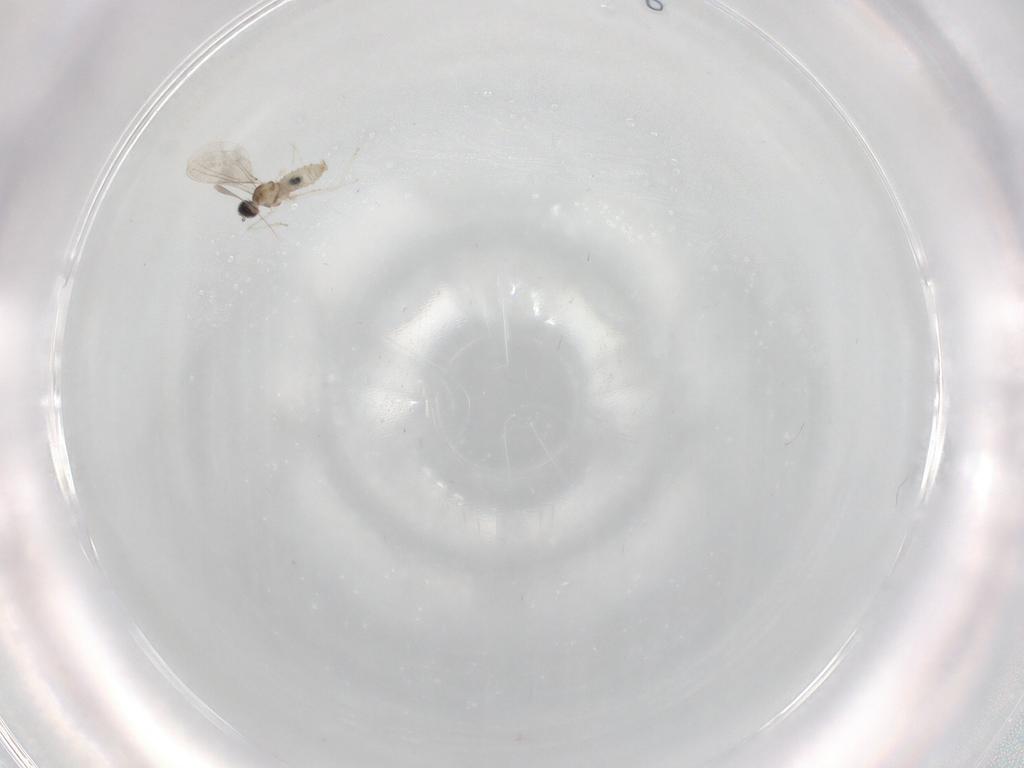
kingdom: Animalia
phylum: Arthropoda
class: Insecta
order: Diptera
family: Cecidomyiidae
